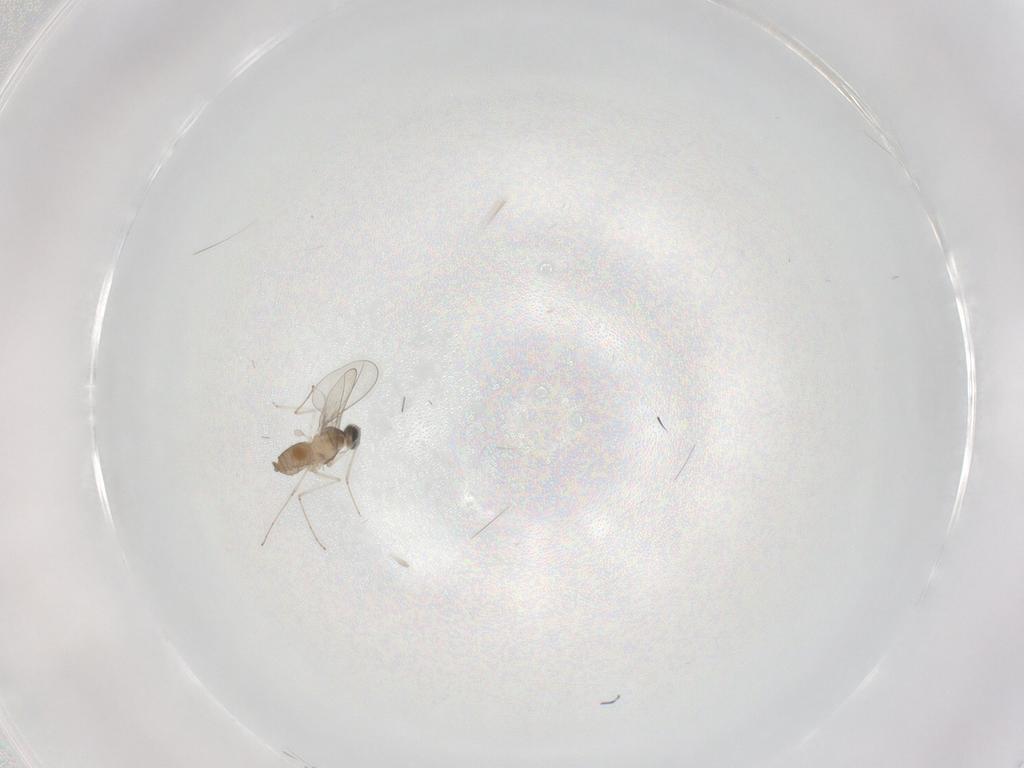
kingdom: Animalia
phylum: Arthropoda
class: Insecta
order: Diptera
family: Cecidomyiidae
